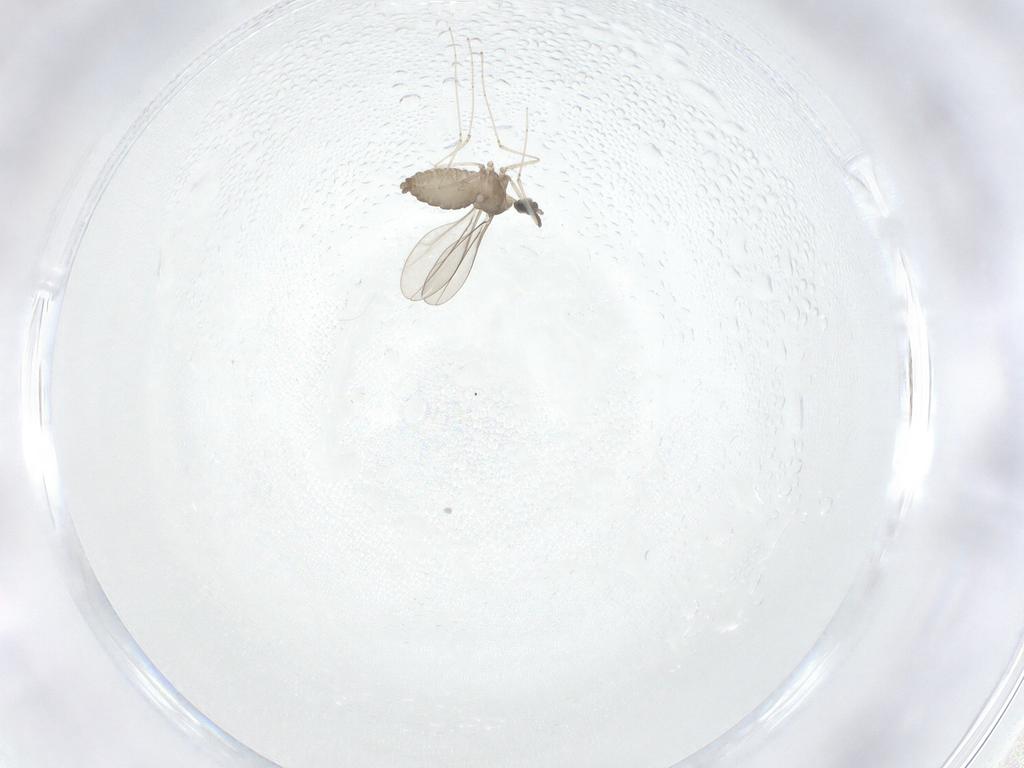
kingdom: Animalia
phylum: Arthropoda
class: Insecta
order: Diptera
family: Cecidomyiidae
